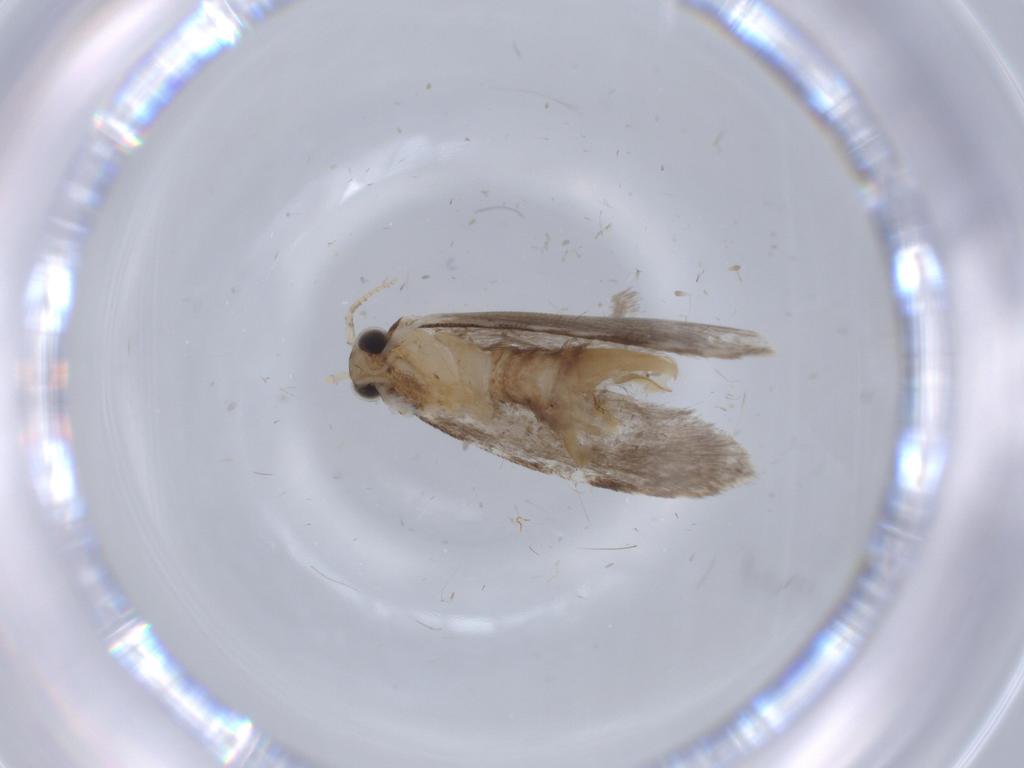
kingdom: Animalia
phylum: Arthropoda
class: Insecta
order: Lepidoptera
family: Tineidae
